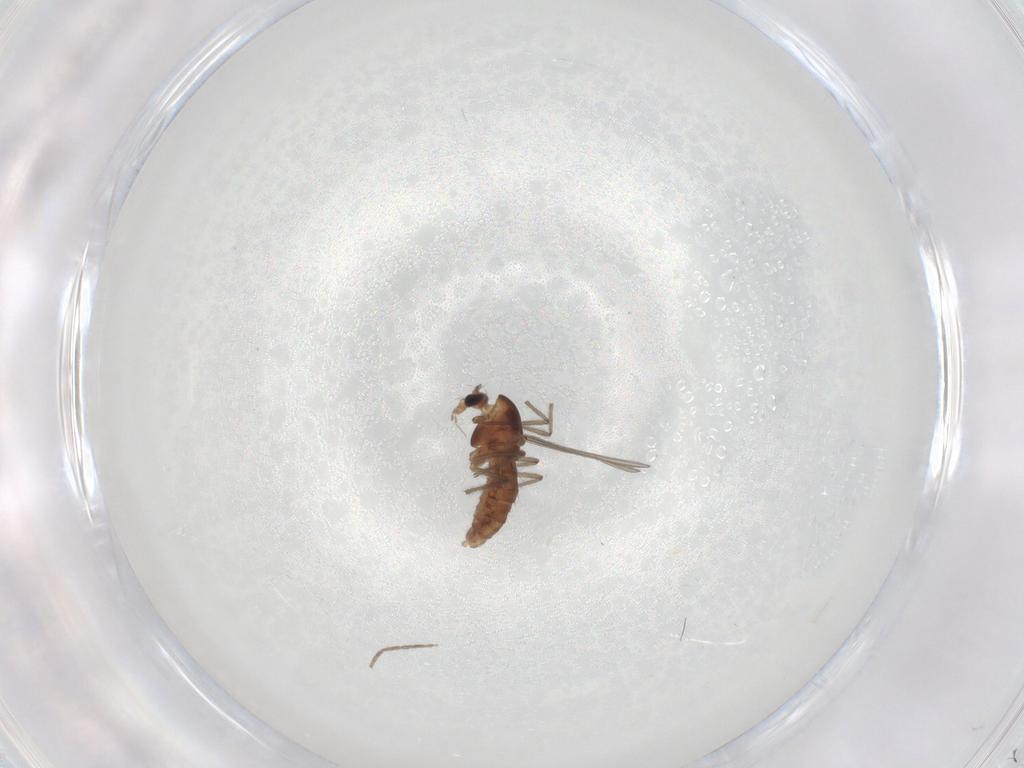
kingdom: Animalia
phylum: Arthropoda
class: Insecta
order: Diptera
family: Chironomidae
